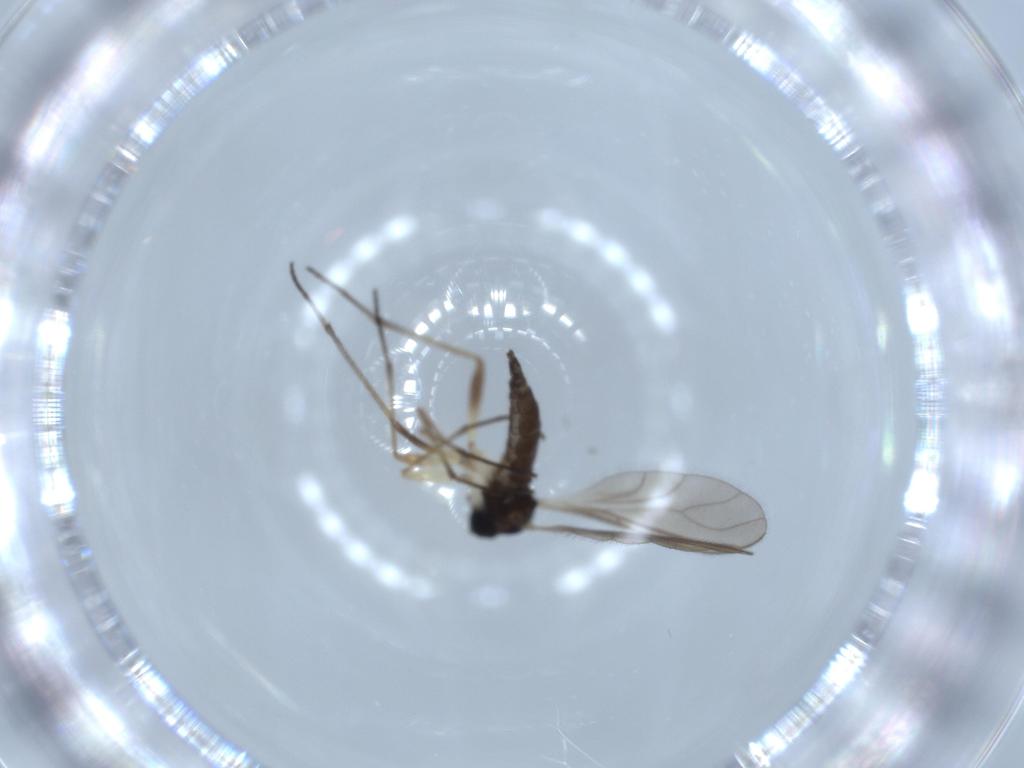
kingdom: Animalia
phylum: Arthropoda
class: Insecta
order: Diptera
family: Sciaridae
